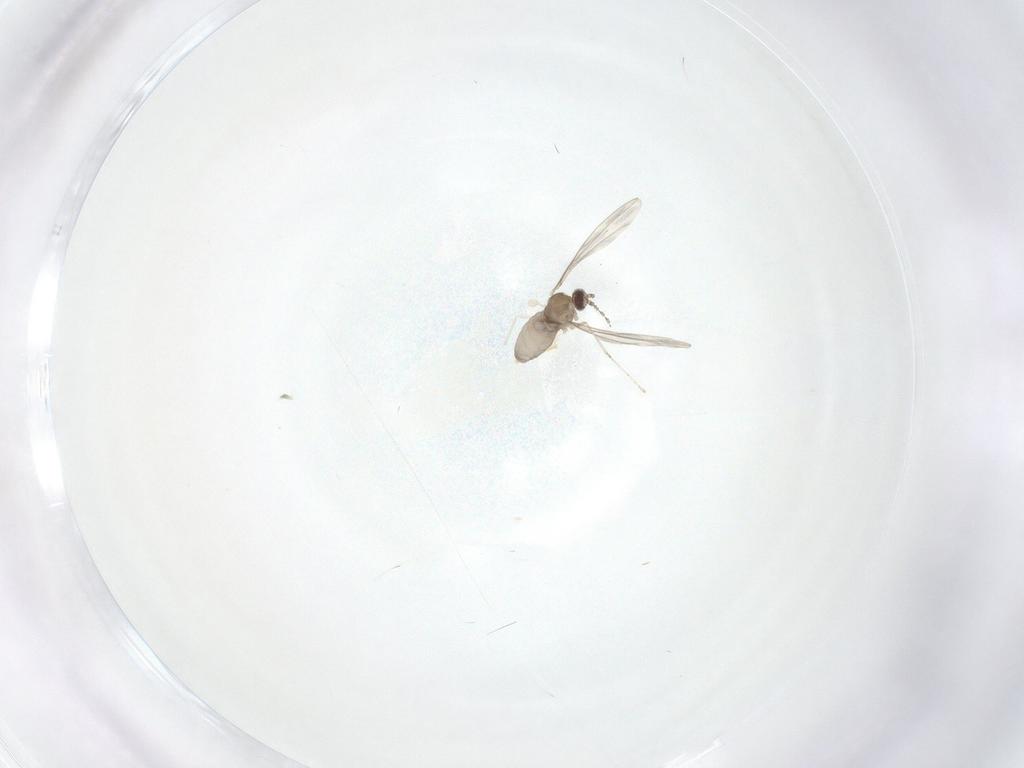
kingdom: Animalia
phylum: Arthropoda
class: Insecta
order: Diptera
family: Cecidomyiidae
